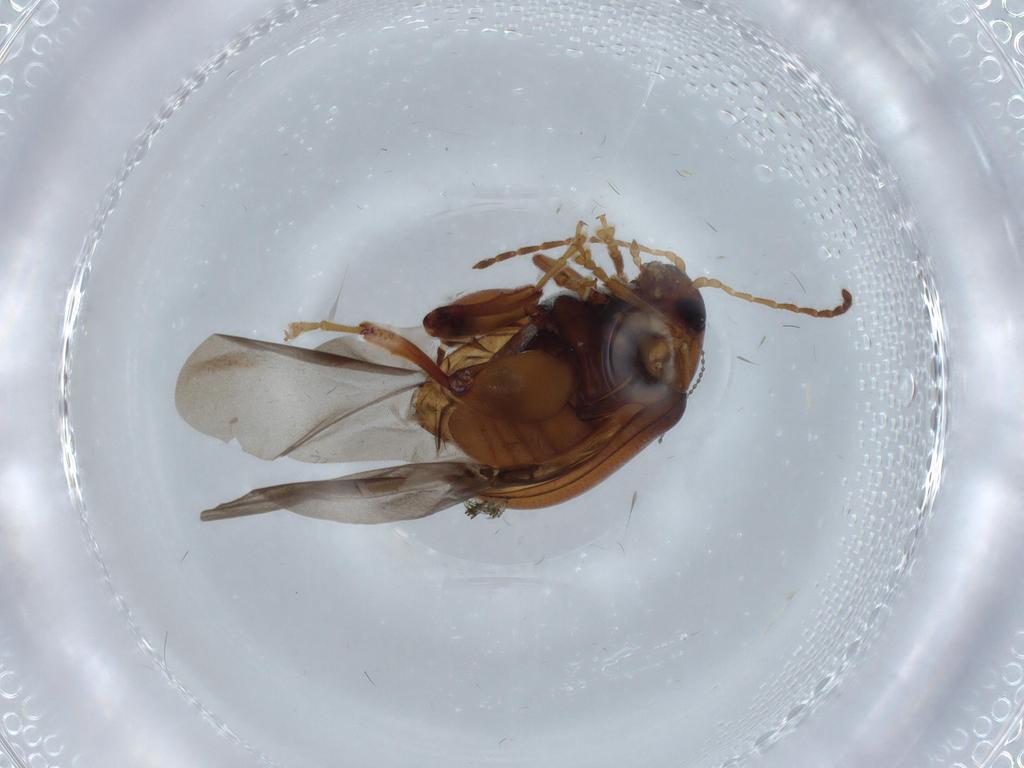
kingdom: Animalia
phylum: Arthropoda
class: Insecta
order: Coleoptera
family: Chrysomelidae
